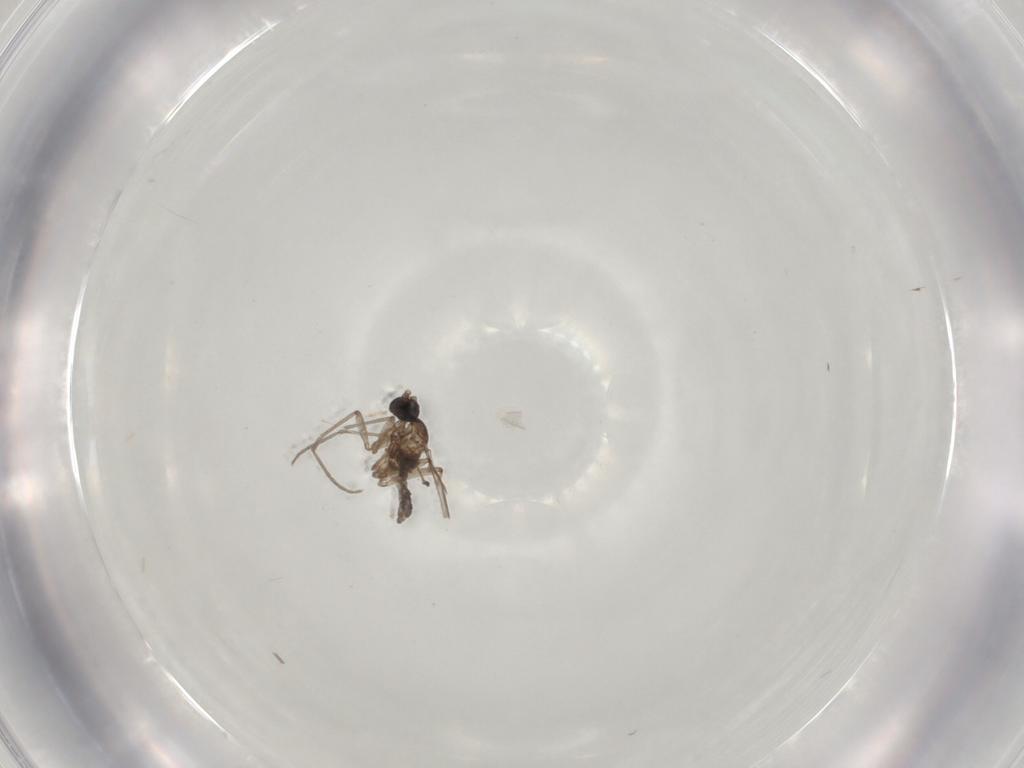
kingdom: Animalia
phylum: Arthropoda
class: Insecta
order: Diptera
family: Sciaridae
